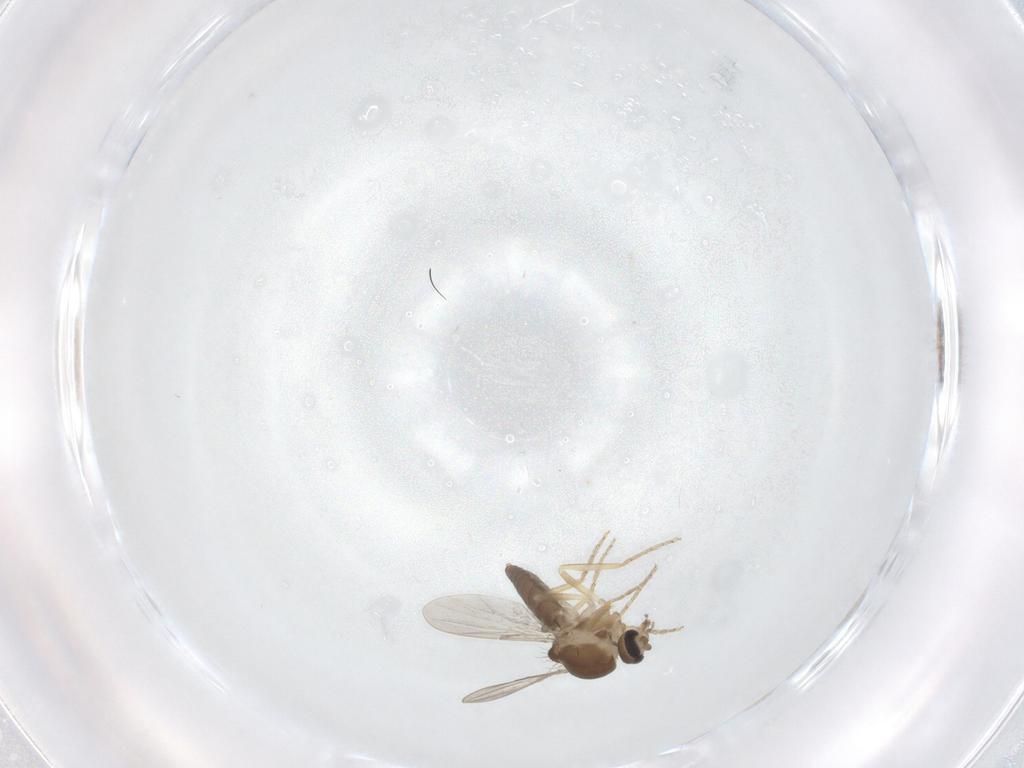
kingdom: Animalia
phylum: Arthropoda
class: Insecta
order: Diptera
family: Ceratopogonidae
